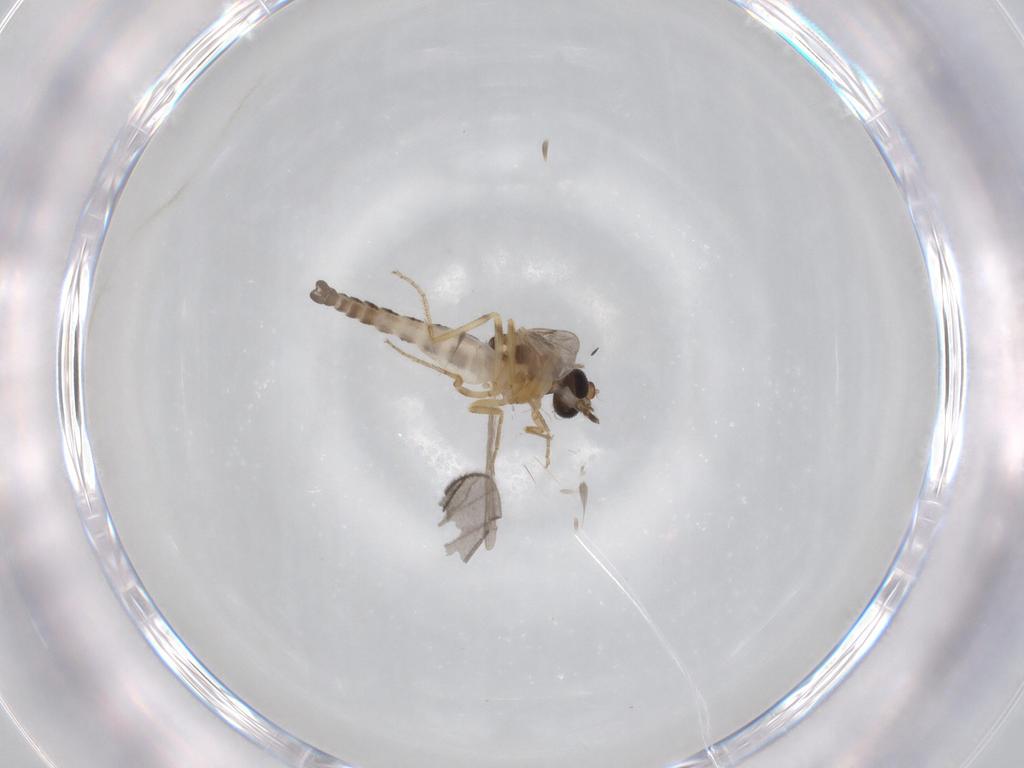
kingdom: Animalia
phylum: Arthropoda
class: Insecta
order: Diptera
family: Ceratopogonidae
